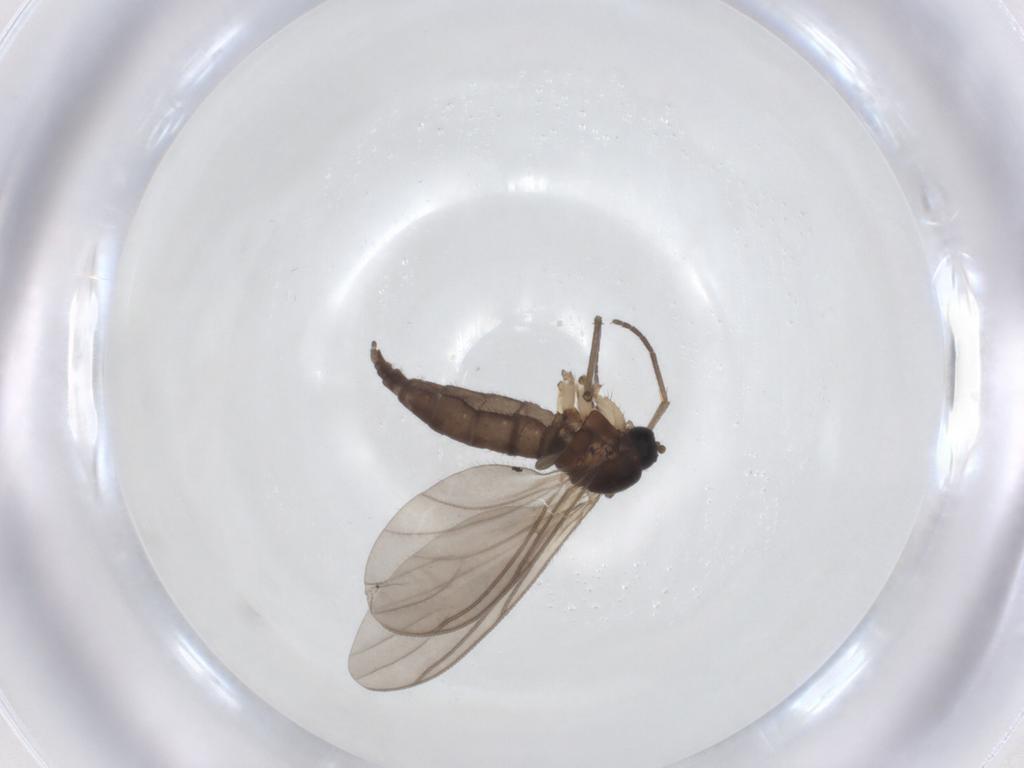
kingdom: Animalia
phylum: Arthropoda
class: Insecta
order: Diptera
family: Sciaridae
